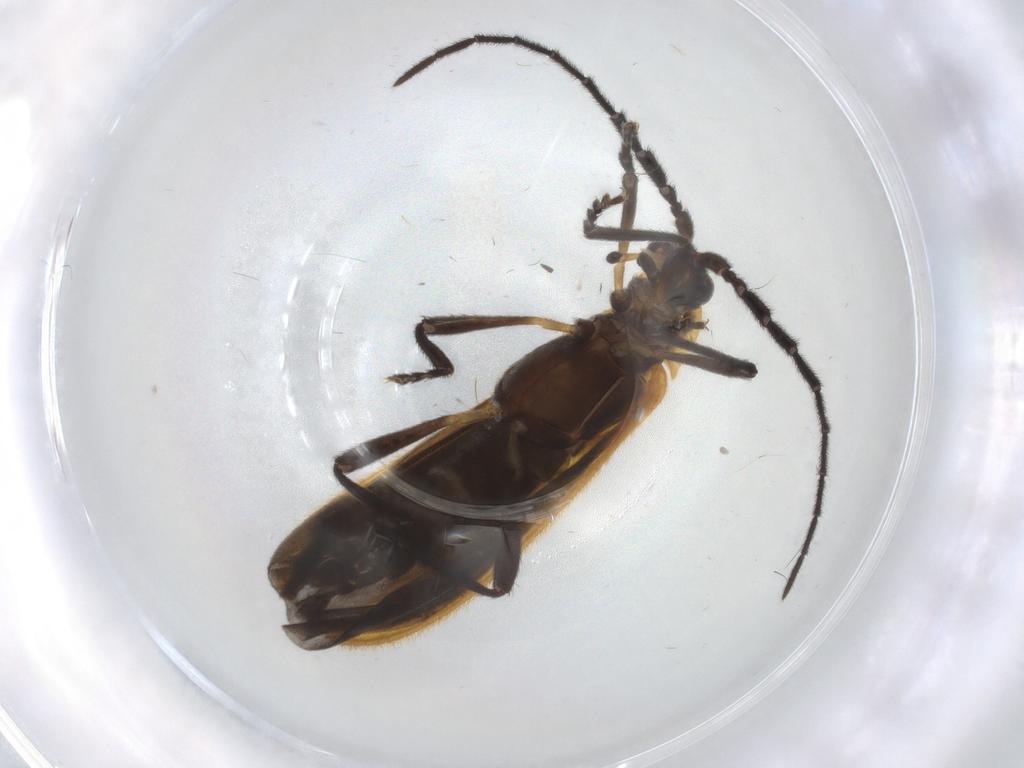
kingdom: Animalia
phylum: Arthropoda
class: Insecta
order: Coleoptera
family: Lycidae
